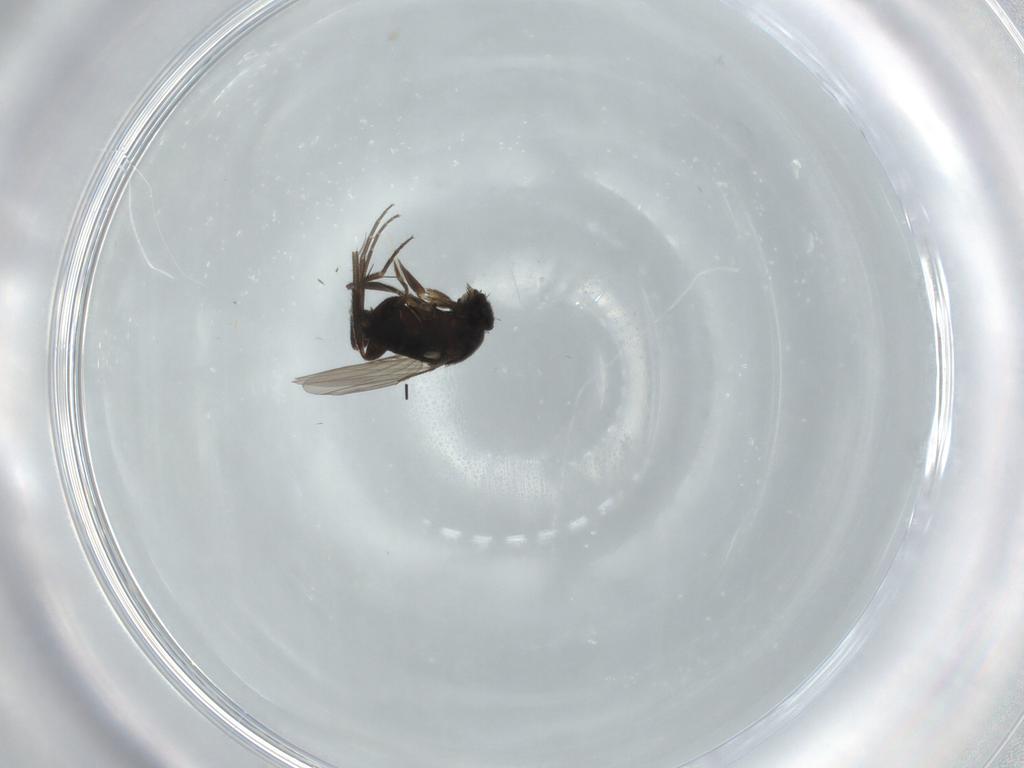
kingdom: Animalia
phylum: Arthropoda
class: Insecta
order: Diptera
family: Phoridae
